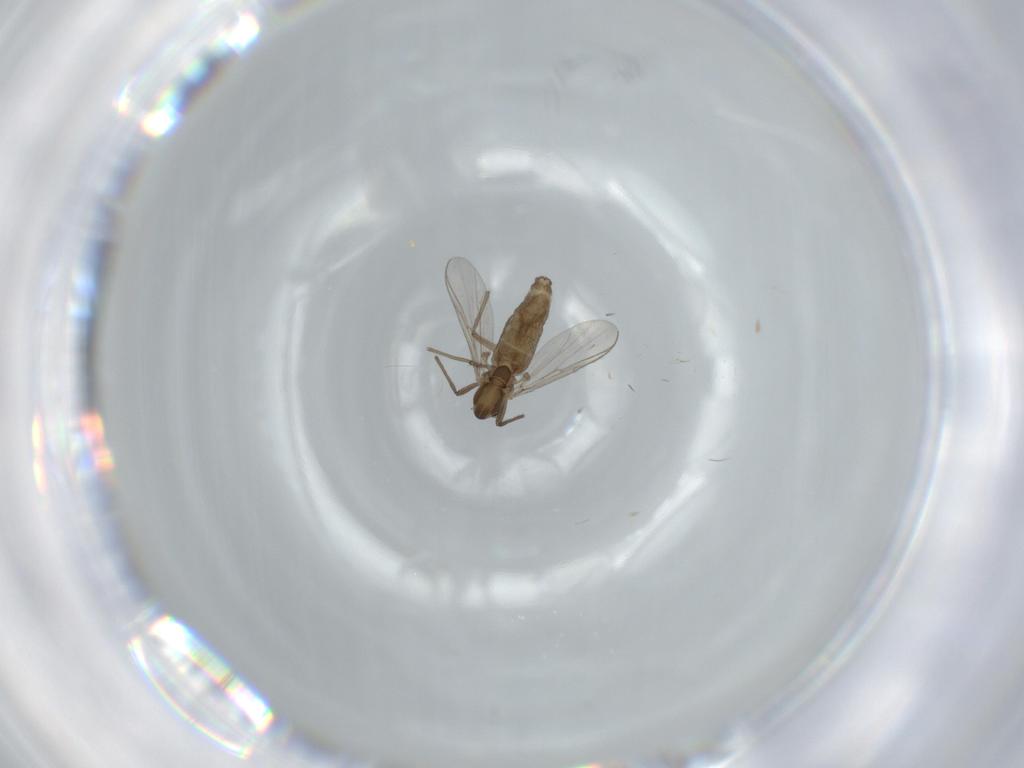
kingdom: Animalia
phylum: Arthropoda
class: Insecta
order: Diptera
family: Chironomidae
